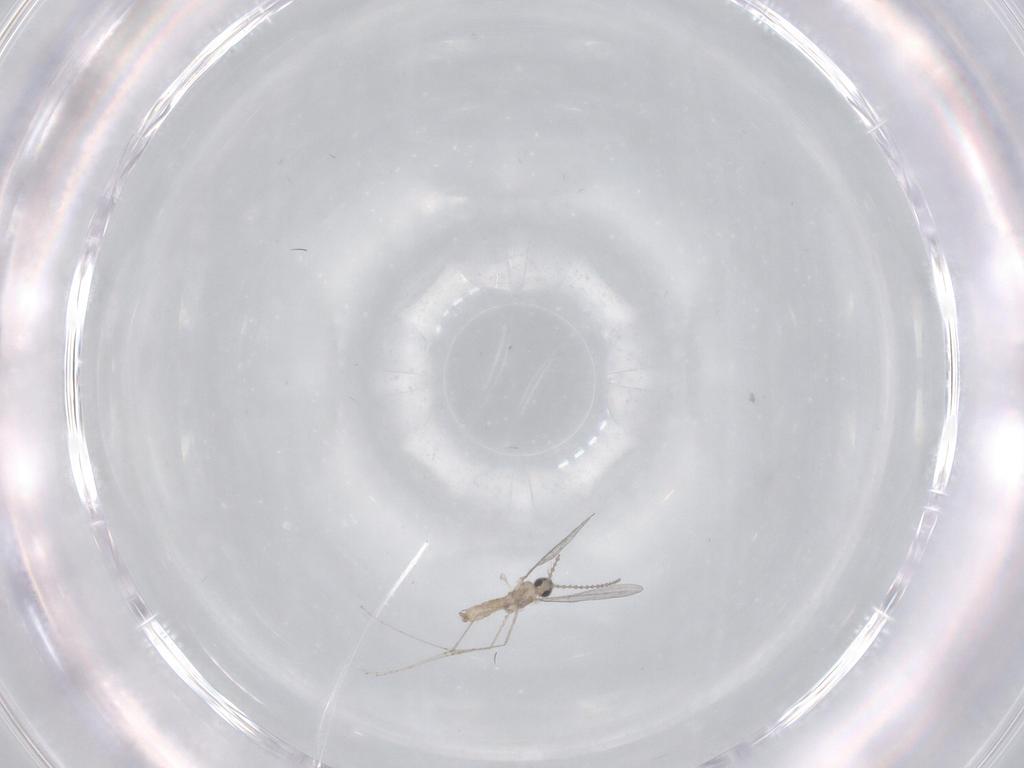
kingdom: Animalia
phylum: Arthropoda
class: Insecta
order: Diptera
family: Cecidomyiidae
